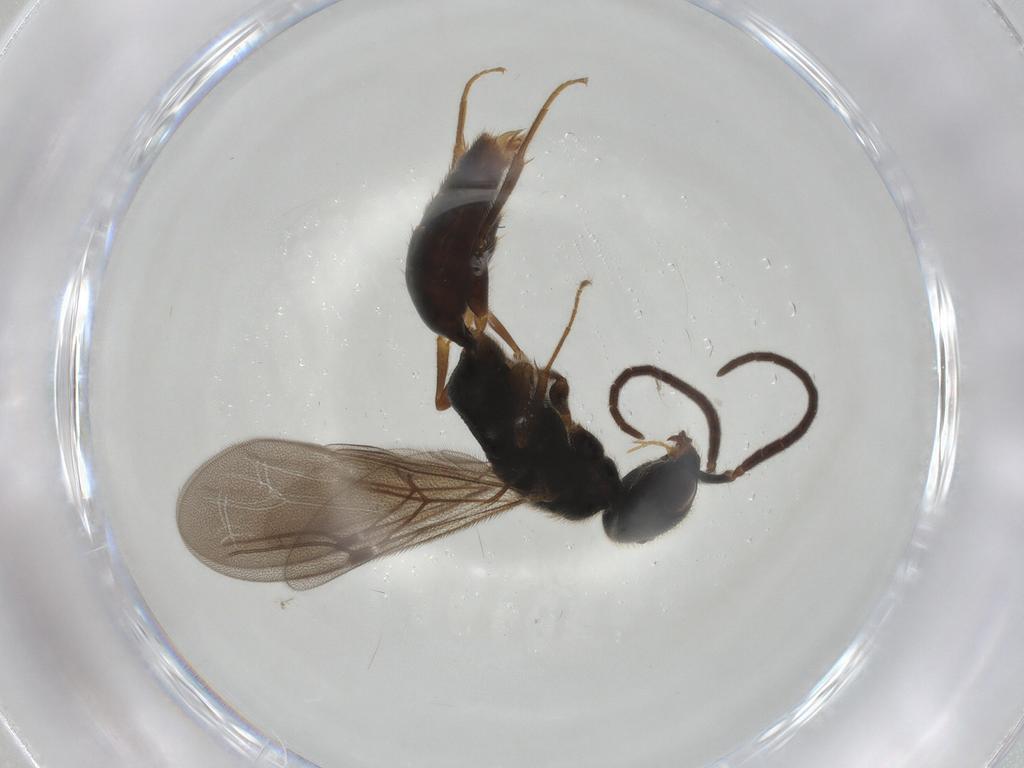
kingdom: Animalia
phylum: Arthropoda
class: Insecta
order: Hymenoptera
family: Bethylidae
